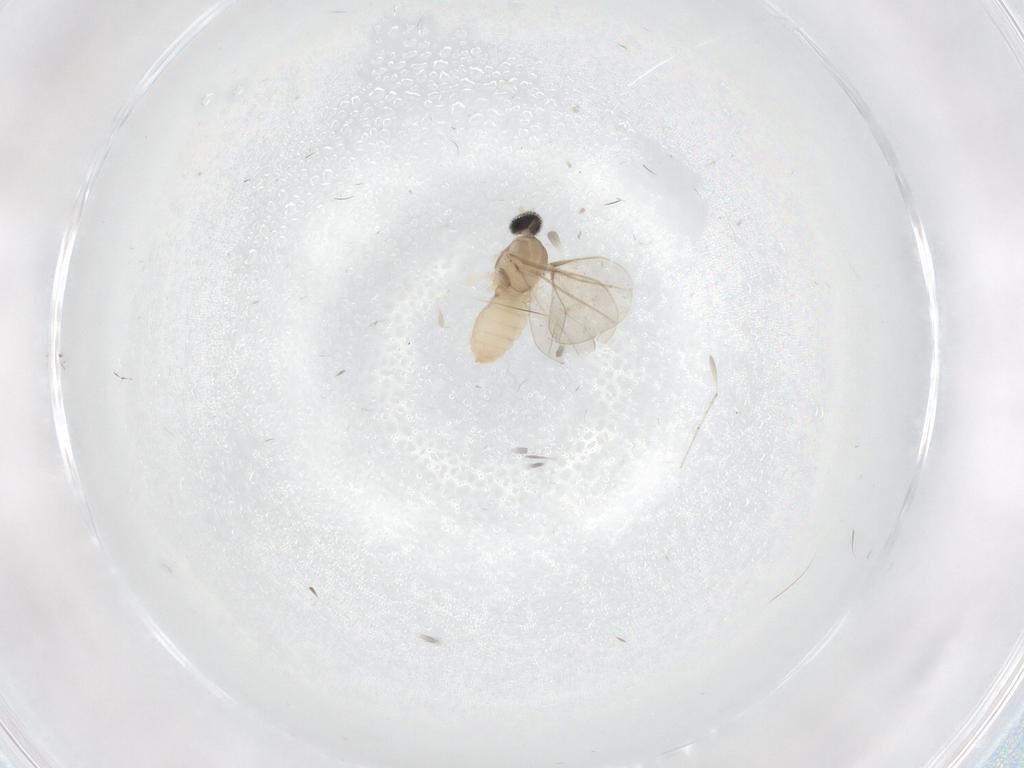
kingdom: Animalia
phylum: Arthropoda
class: Insecta
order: Diptera
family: Cecidomyiidae
